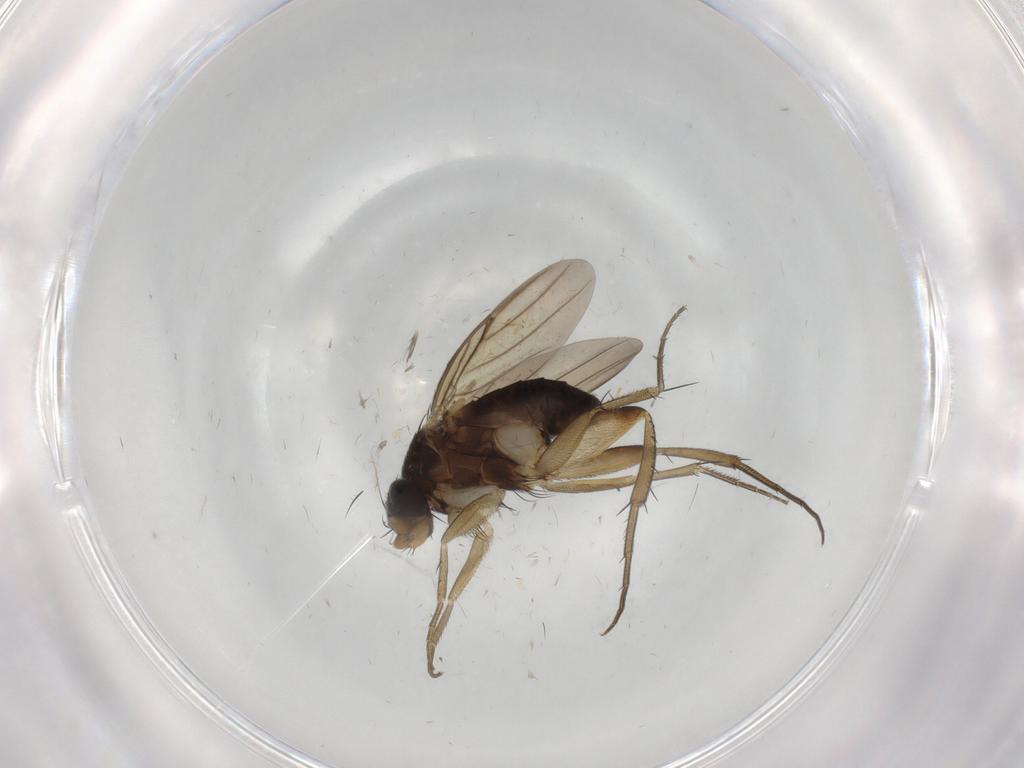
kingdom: Animalia
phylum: Arthropoda
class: Insecta
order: Diptera
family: Phoridae
